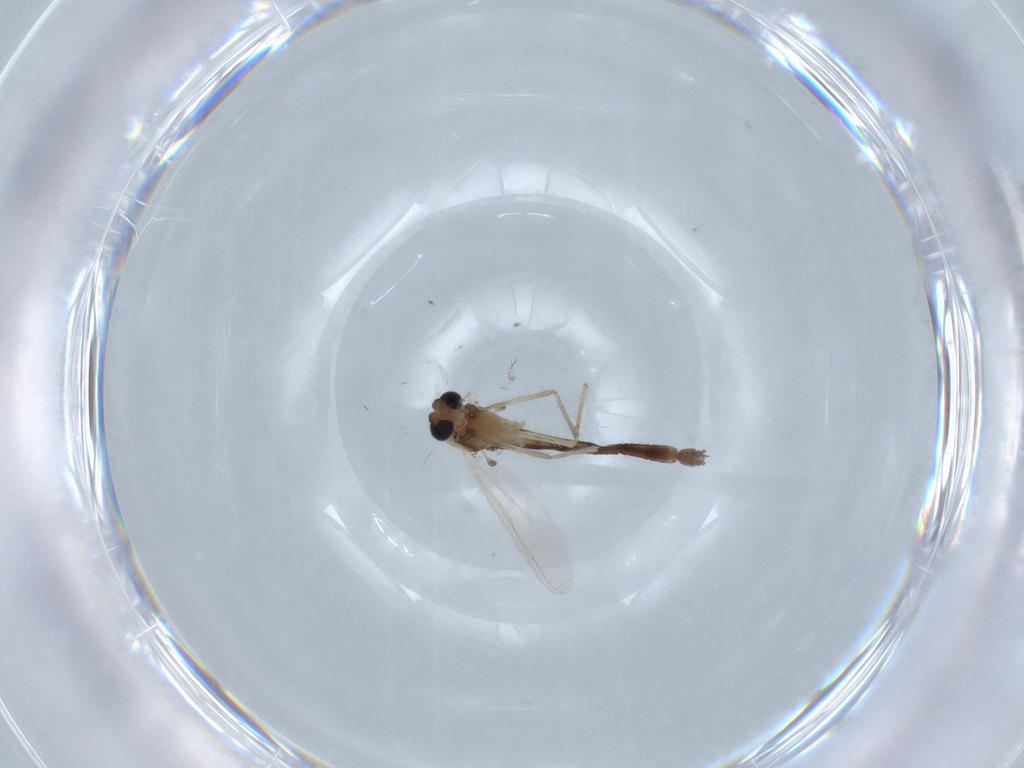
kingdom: Animalia
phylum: Arthropoda
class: Insecta
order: Diptera
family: Chironomidae
